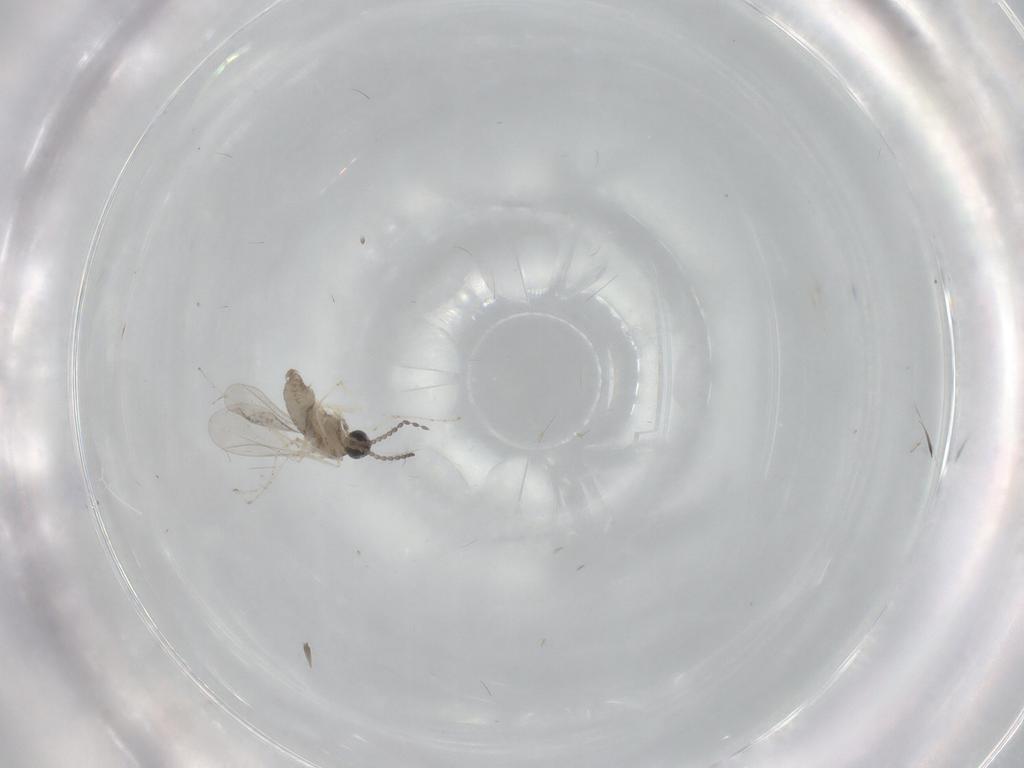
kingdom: Animalia
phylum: Arthropoda
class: Insecta
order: Diptera
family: Cecidomyiidae
